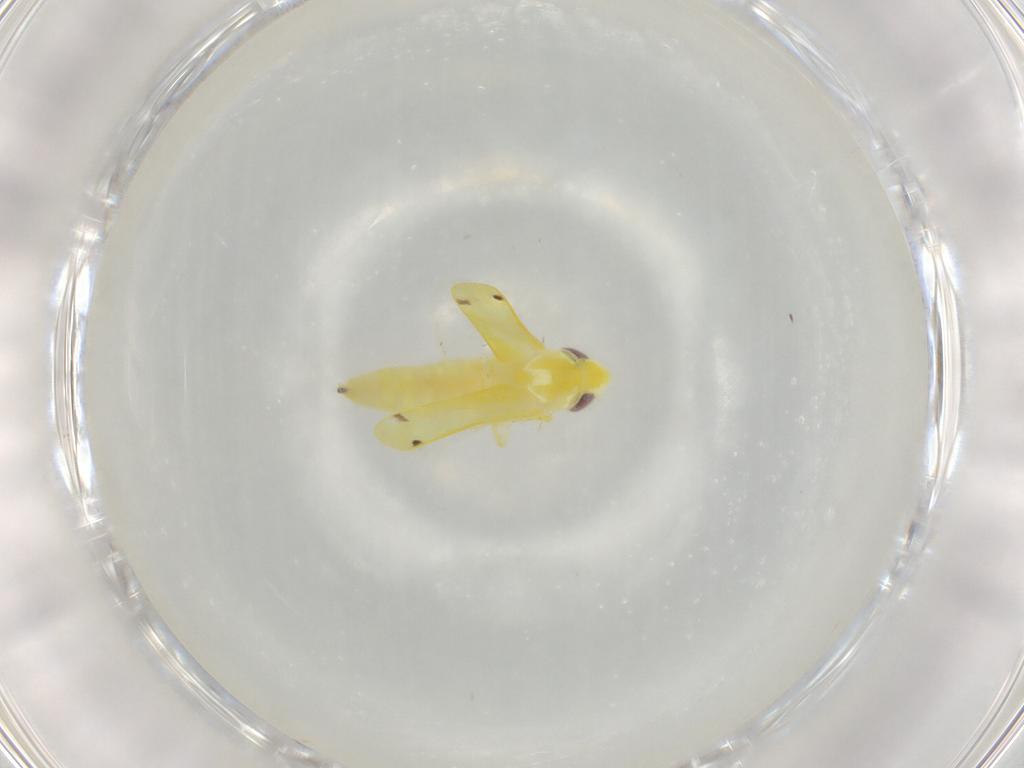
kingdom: Animalia
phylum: Arthropoda
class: Insecta
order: Hemiptera
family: Cicadellidae
